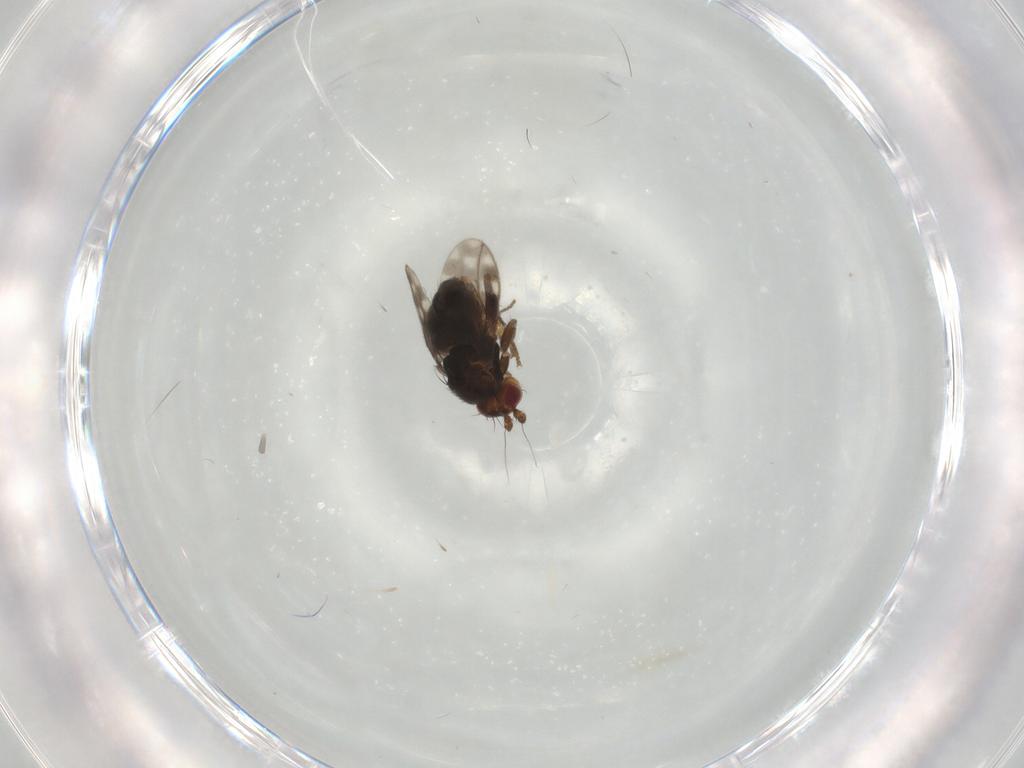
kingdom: Animalia
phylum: Arthropoda
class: Insecta
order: Diptera
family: Sphaeroceridae
